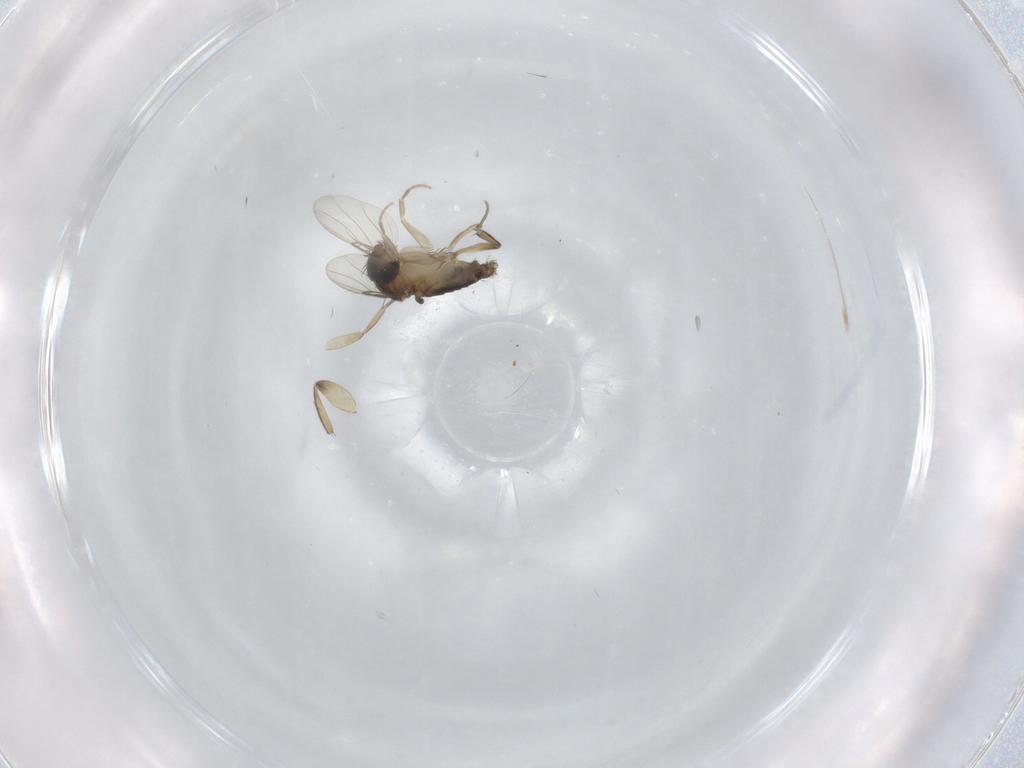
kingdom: Animalia
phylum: Arthropoda
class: Insecta
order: Diptera
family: Phoridae
